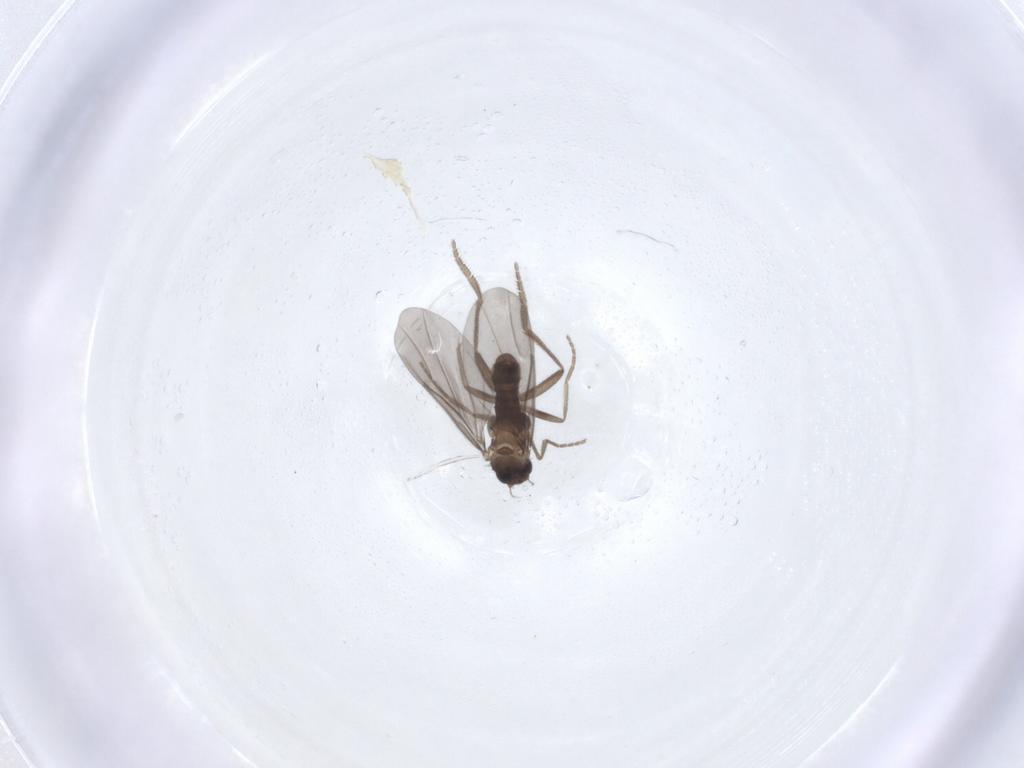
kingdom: Animalia
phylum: Arthropoda
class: Insecta
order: Diptera
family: Phoridae
